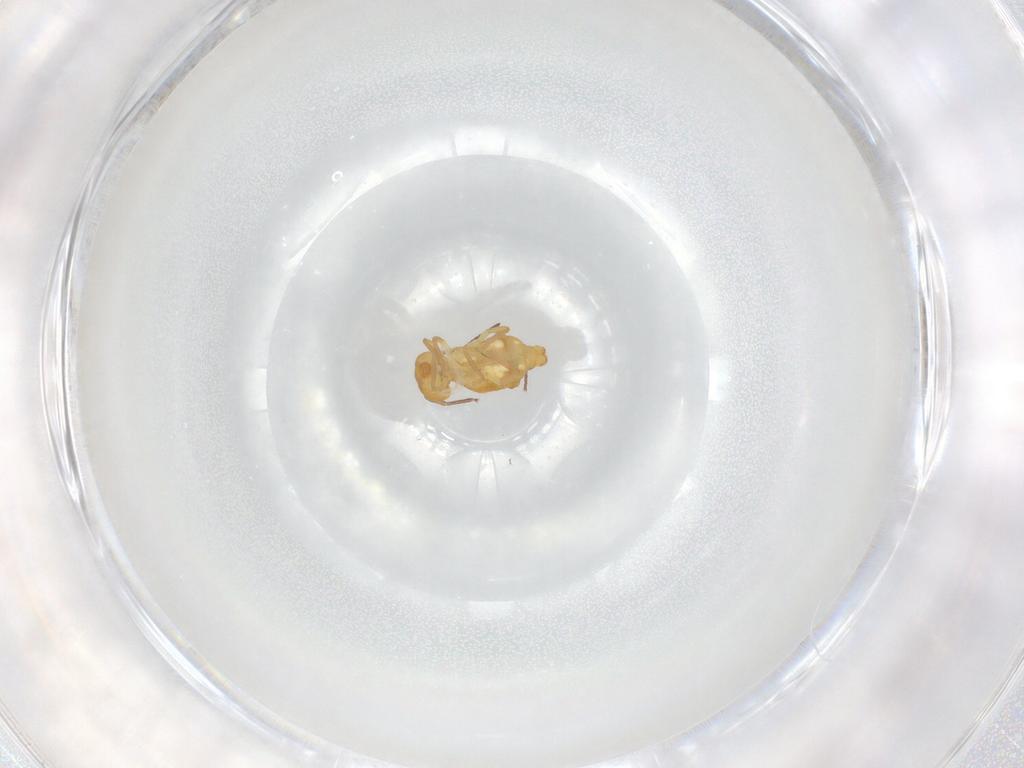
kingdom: Animalia
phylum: Arthropoda
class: Collembola
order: Symphypleona
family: Bourletiellidae
